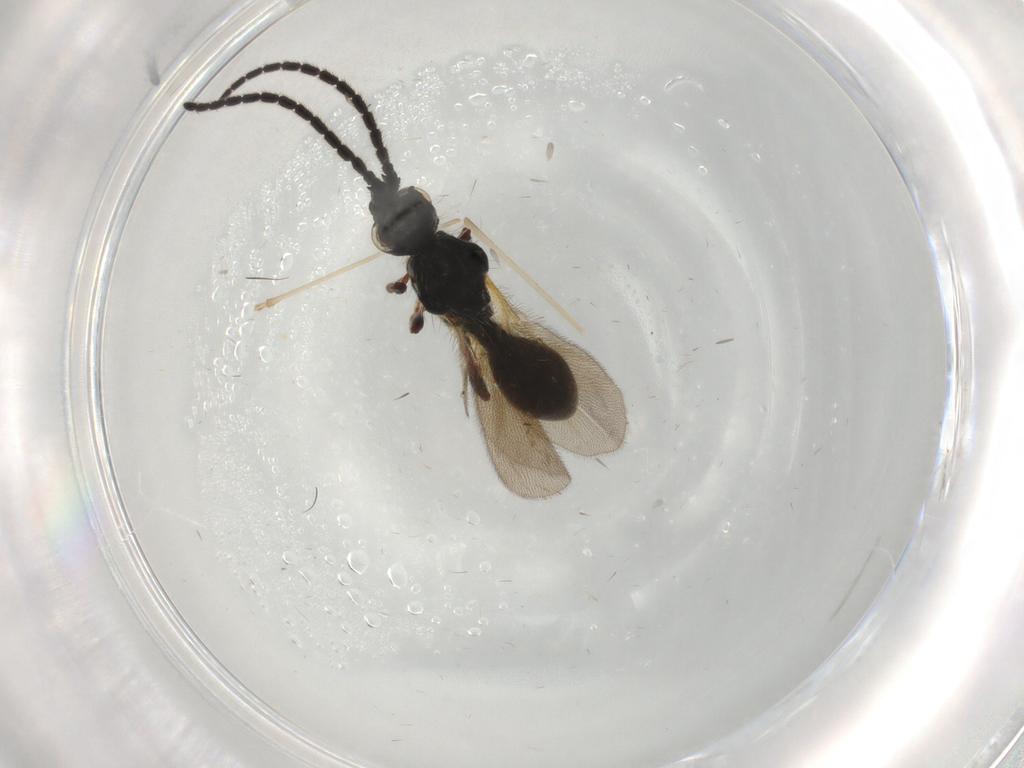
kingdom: Animalia
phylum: Arthropoda
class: Insecta
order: Hymenoptera
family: Diapriidae
